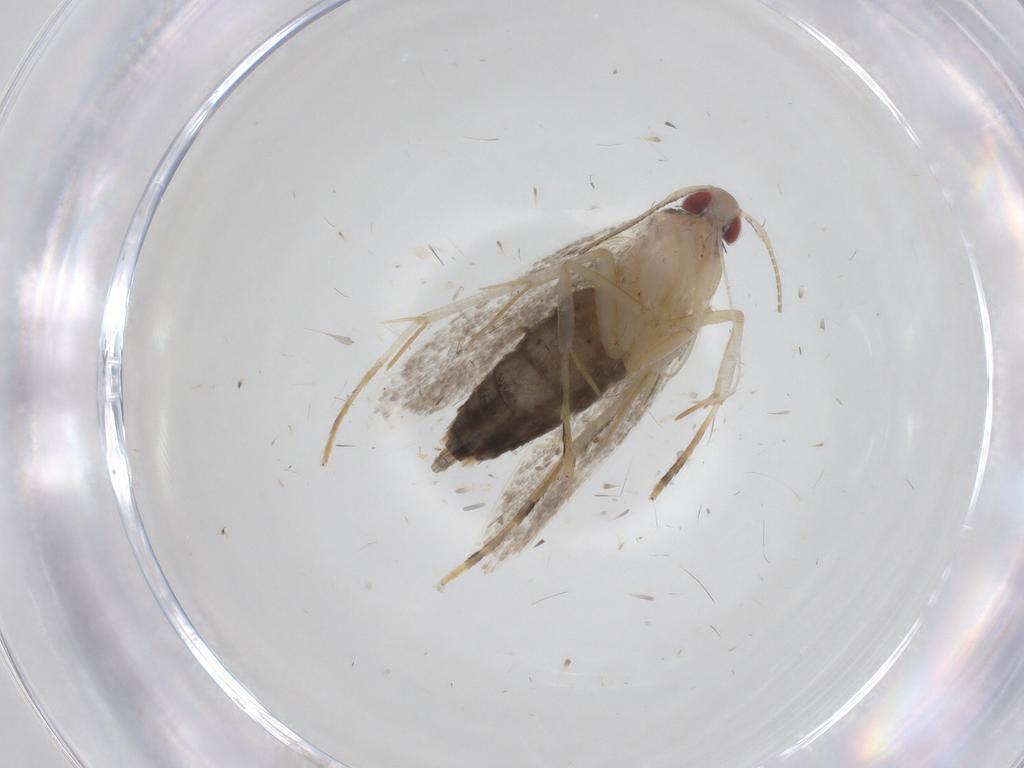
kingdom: Animalia
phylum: Arthropoda
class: Insecta
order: Lepidoptera
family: Cosmopterigidae
